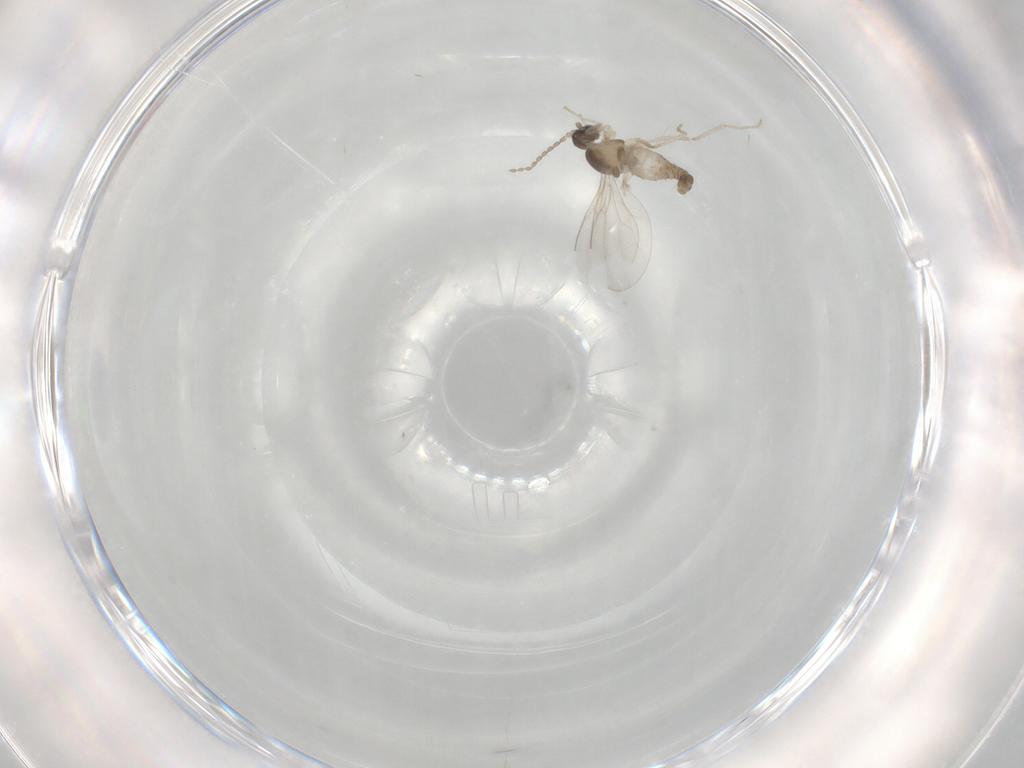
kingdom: Animalia
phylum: Arthropoda
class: Insecta
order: Diptera
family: Cecidomyiidae
